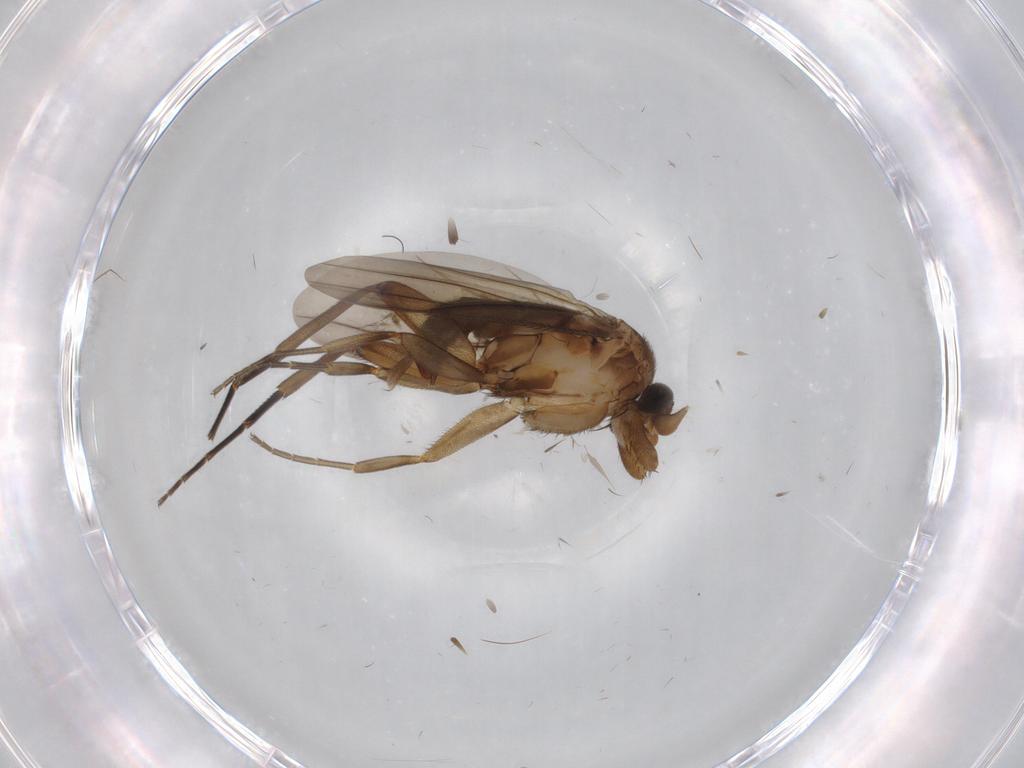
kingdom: Animalia
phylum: Arthropoda
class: Insecta
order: Diptera
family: Chironomidae
